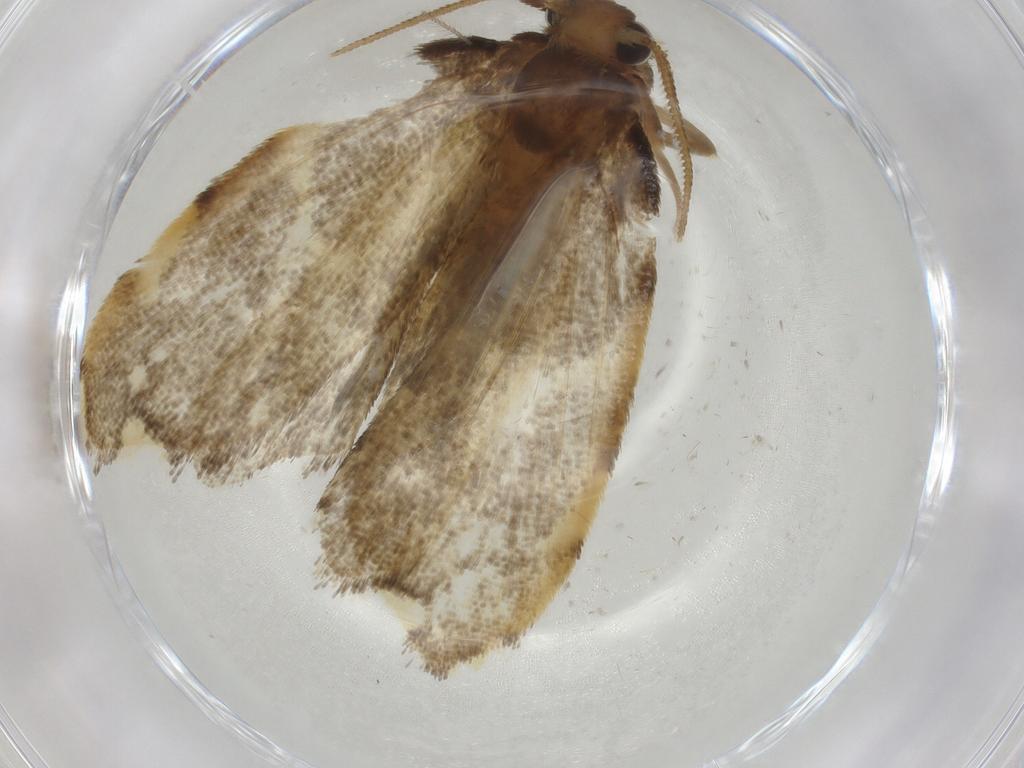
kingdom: Animalia
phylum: Arthropoda
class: Insecta
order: Lepidoptera
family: Psychidae
